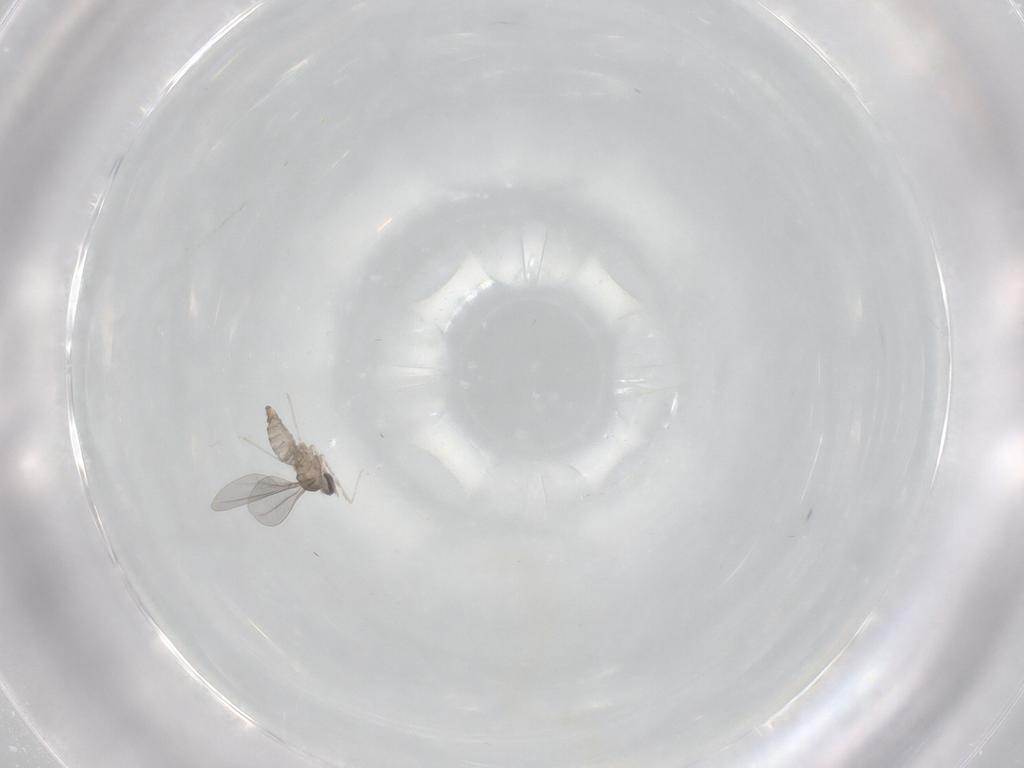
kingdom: Animalia
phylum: Arthropoda
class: Insecta
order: Diptera
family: Cecidomyiidae
